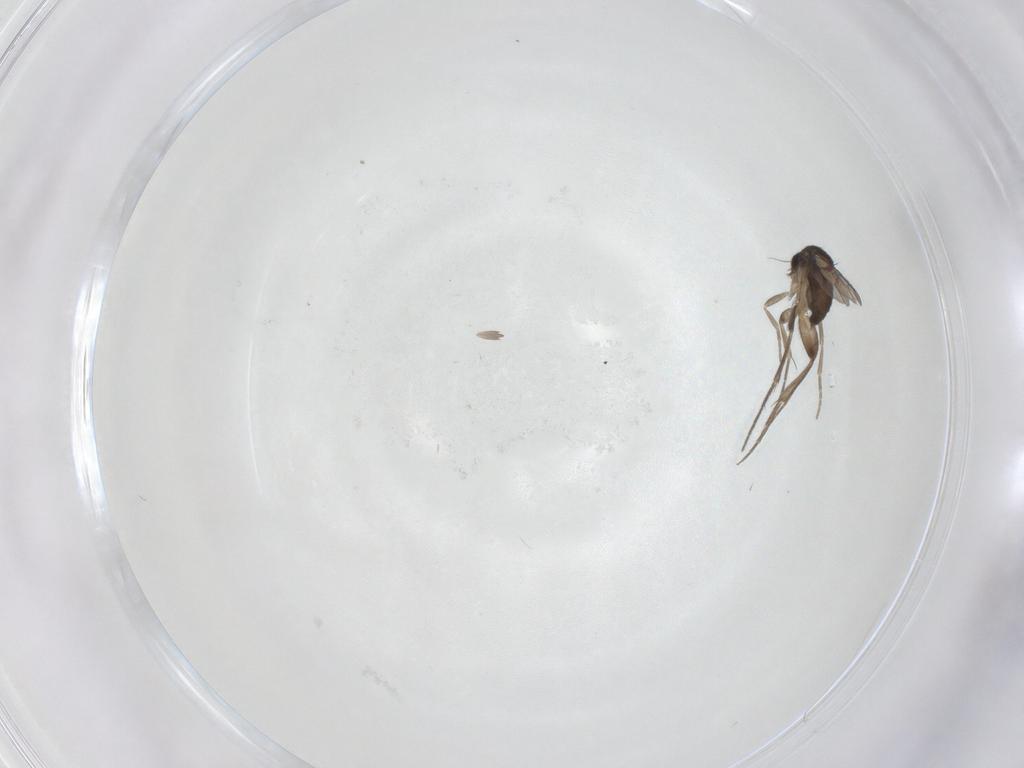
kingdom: Animalia
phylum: Arthropoda
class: Insecta
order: Diptera
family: Phoridae
